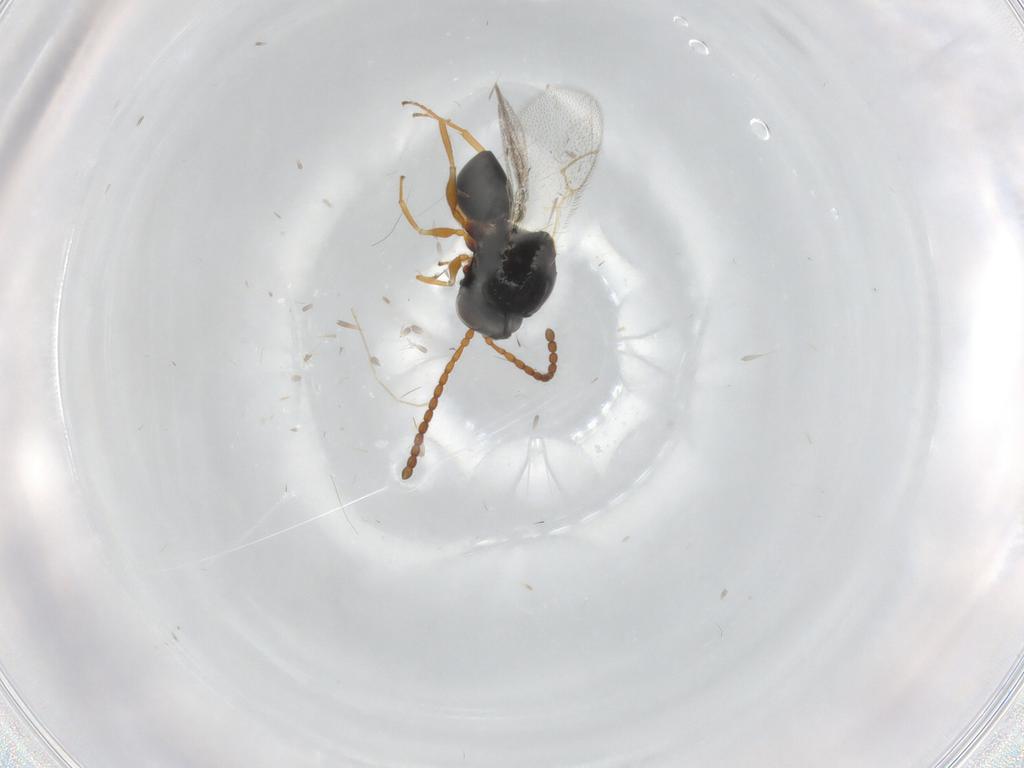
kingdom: Animalia
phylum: Arthropoda
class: Insecta
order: Hymenoptera
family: Figitidae
